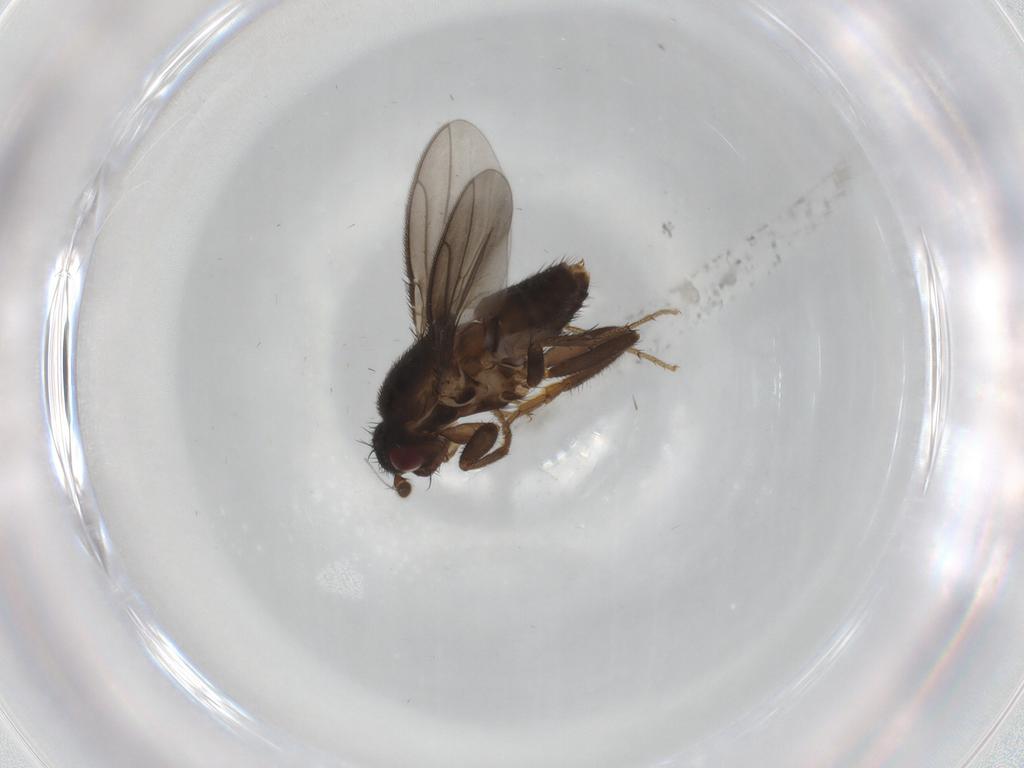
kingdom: Animalia
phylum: Arthropoda
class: Insecta
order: Diptera
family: Sphaeroceridae
